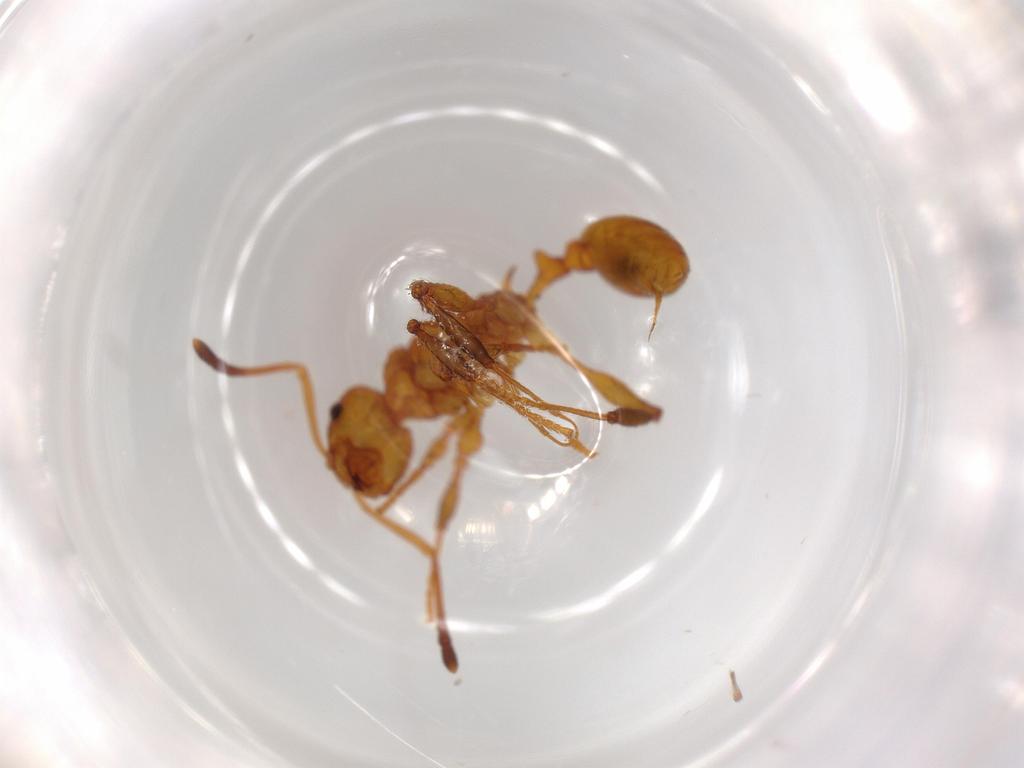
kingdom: Animalia
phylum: Arthropoda
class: Insecta
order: Hymenoptera
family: Formicidae
